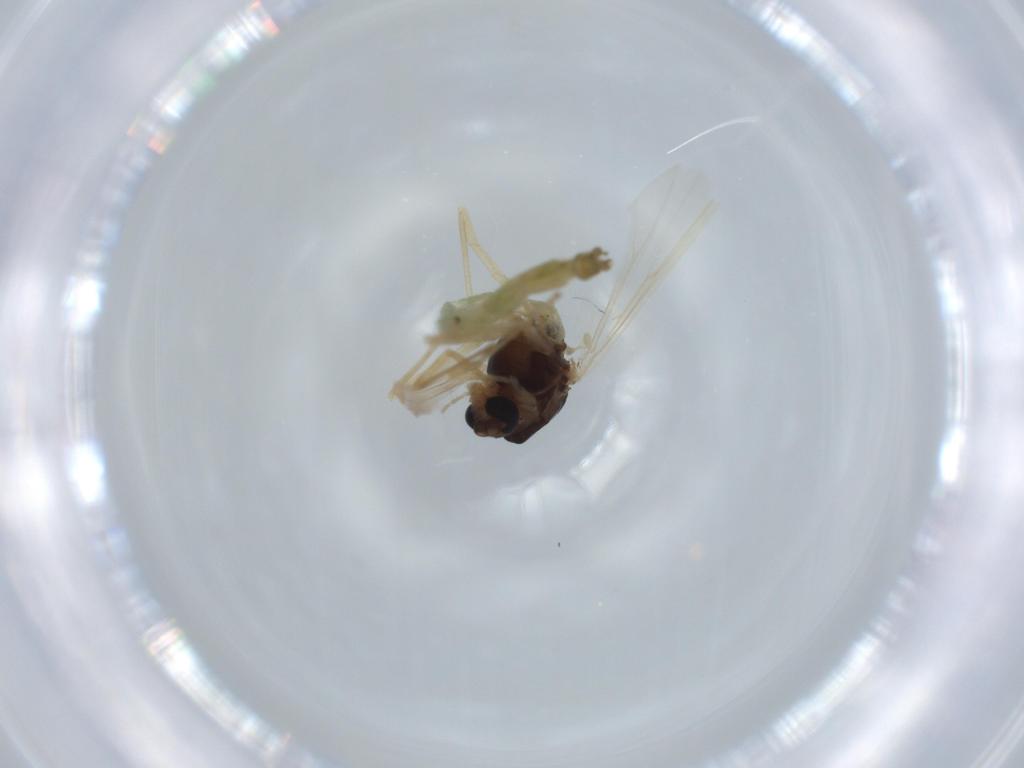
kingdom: Animalia
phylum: Arthropoda
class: Insecta
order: Diptera
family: Chironomidae
